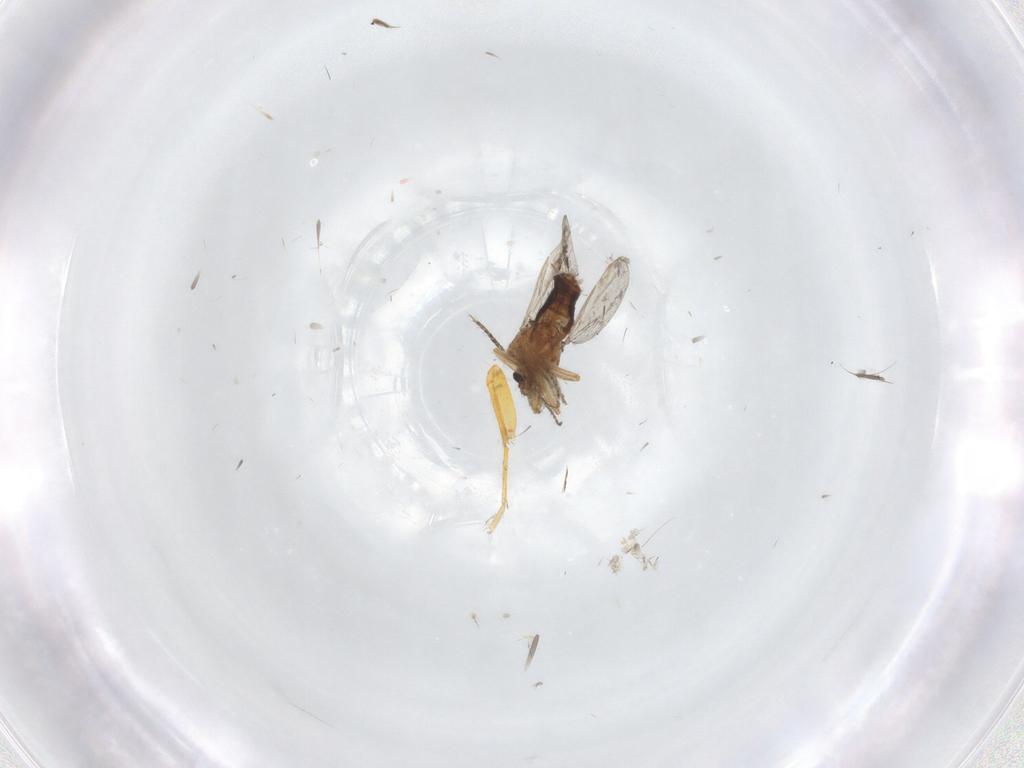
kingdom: Animalia
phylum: Arthropoda
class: Insecta
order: Diptera
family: Ceratopogonidae
